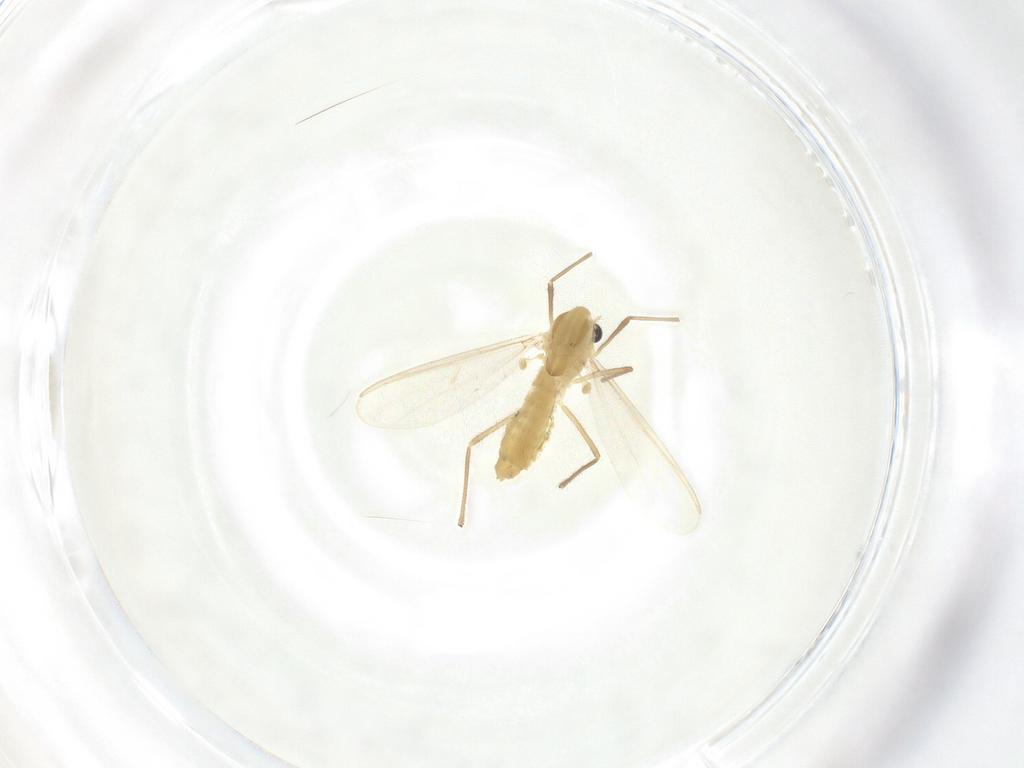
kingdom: Animalia
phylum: Arthropoda
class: Insecta
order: Diptera
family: Chironomidae
